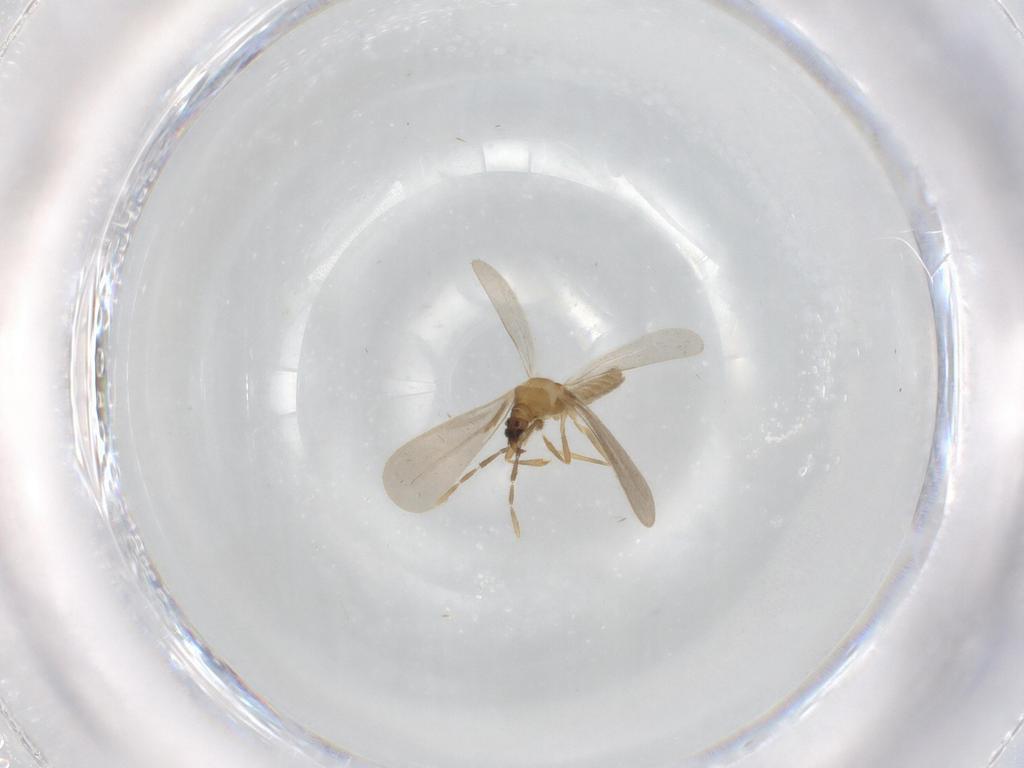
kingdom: Animalia
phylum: Arthropoda
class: Insecta
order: Hemiptera
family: Enicocephalidae
